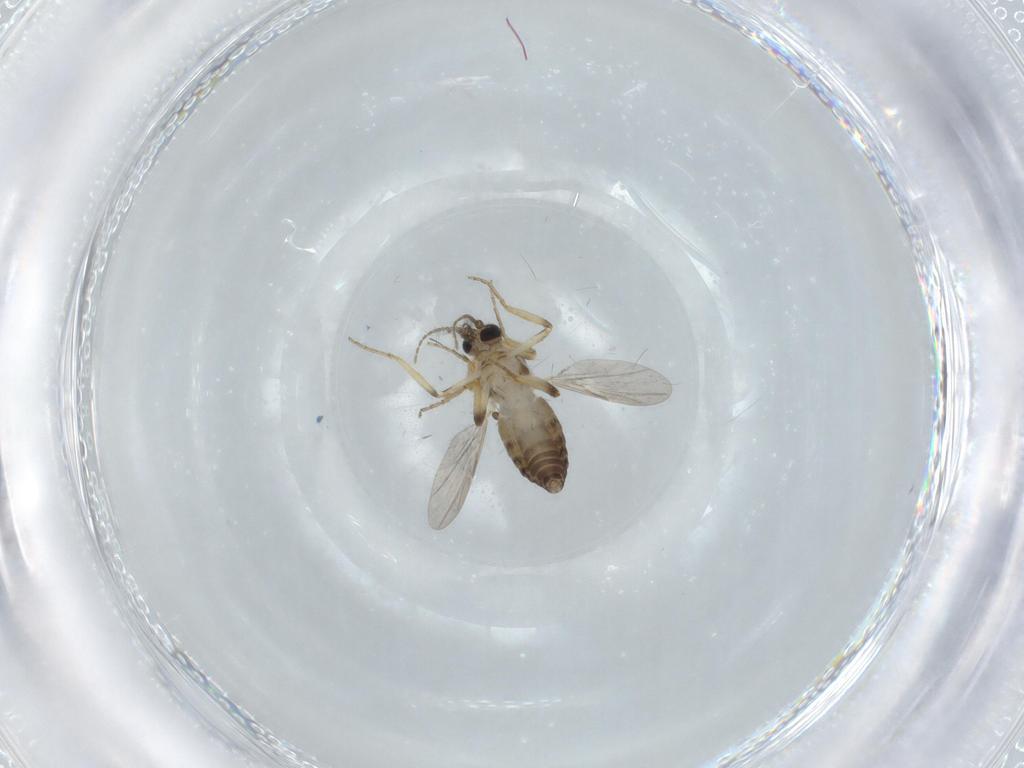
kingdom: Animalia
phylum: Arthropoda
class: Insecta
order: Diptera
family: Ceratopogonidae
